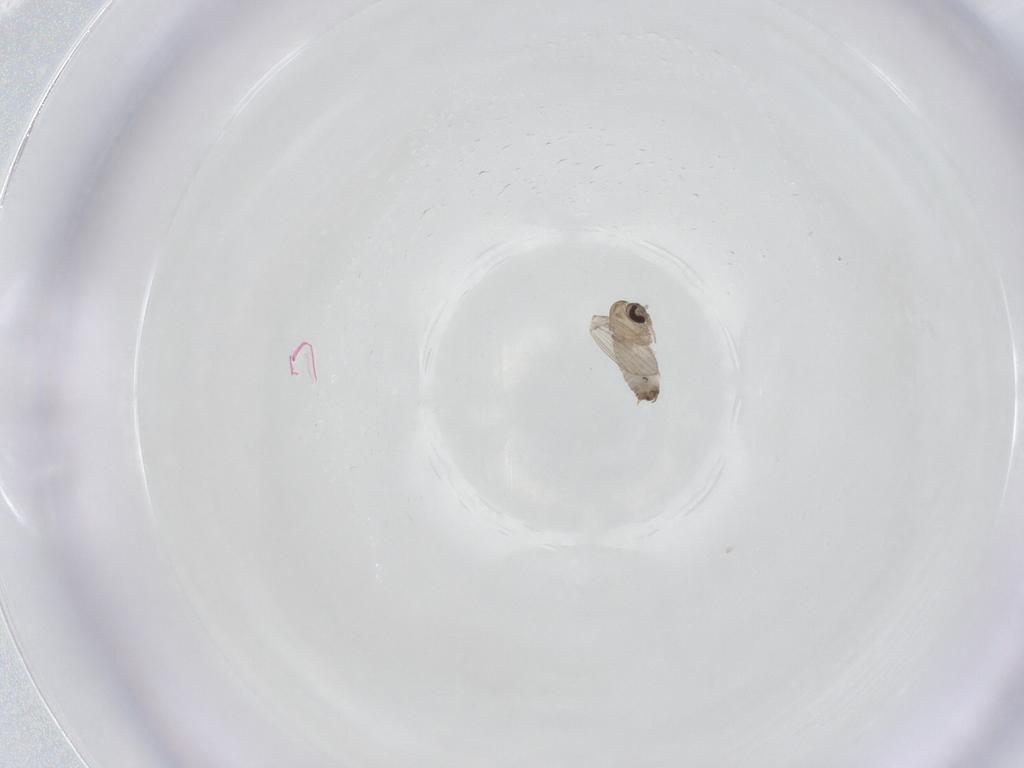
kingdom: Animalia
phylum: Arthropoda
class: Insecta
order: Diptera
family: Psychodidae
